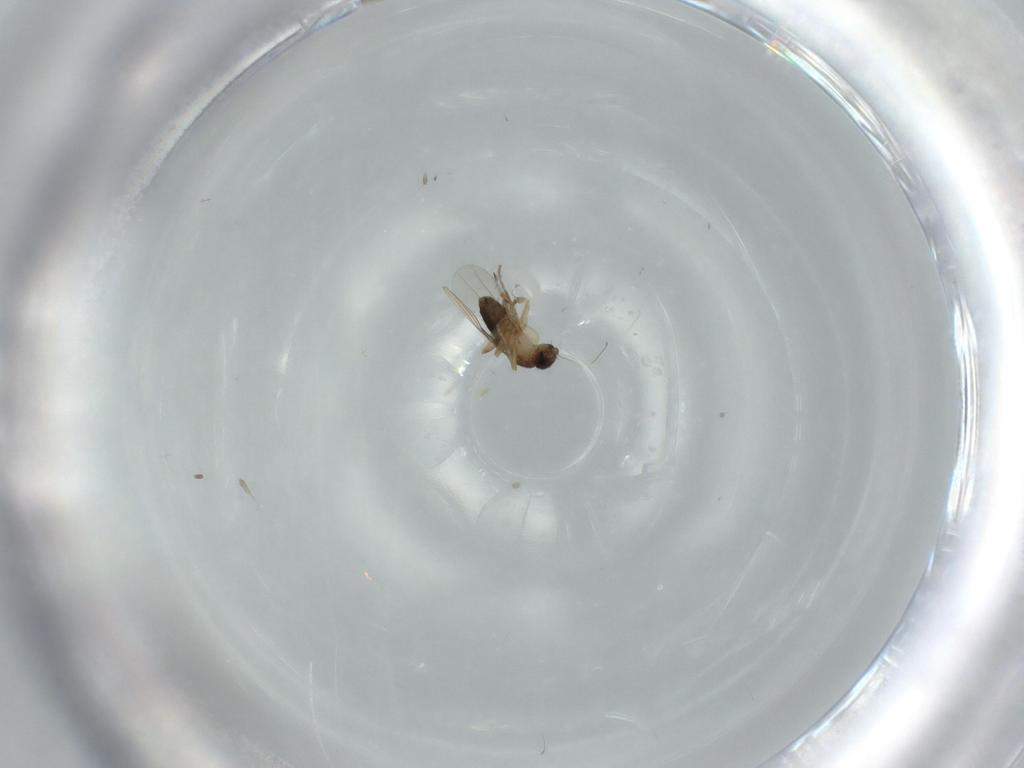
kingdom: Animalia
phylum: Arthropoda
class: Insecta
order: Diptera
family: Phoridae
